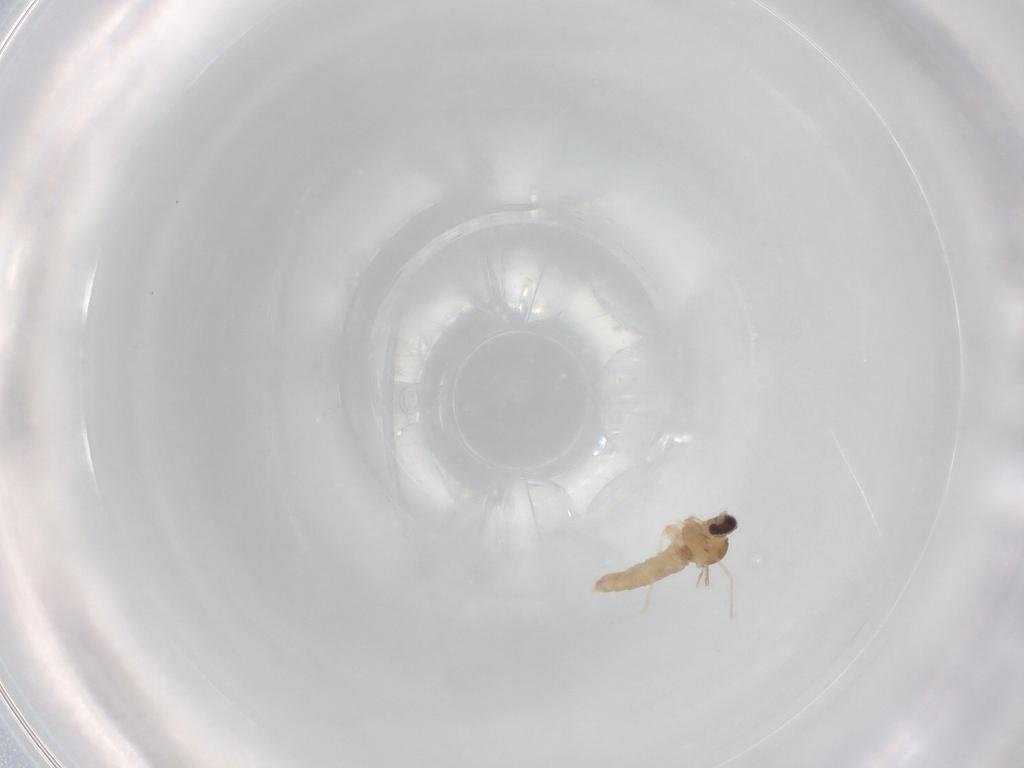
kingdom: Animalia
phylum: Arthropoda
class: Insecta
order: Diptera
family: Cecidomyiidae
